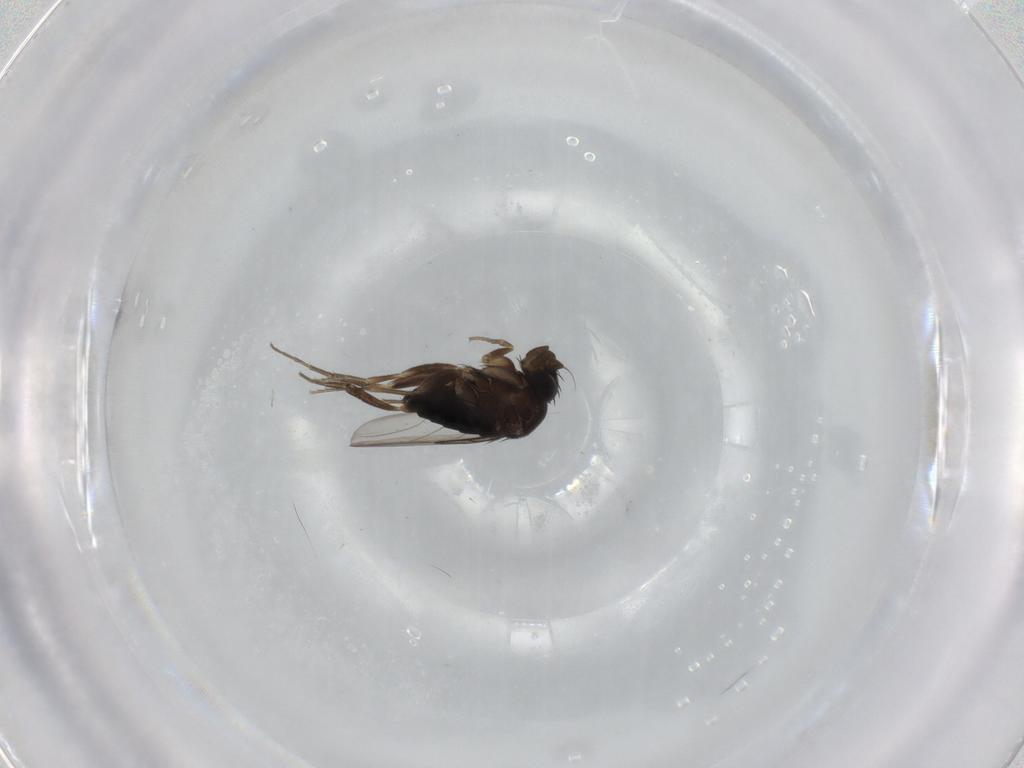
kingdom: Animalia
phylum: Arthropoda
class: Insecta
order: Diptera
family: Phoridae
